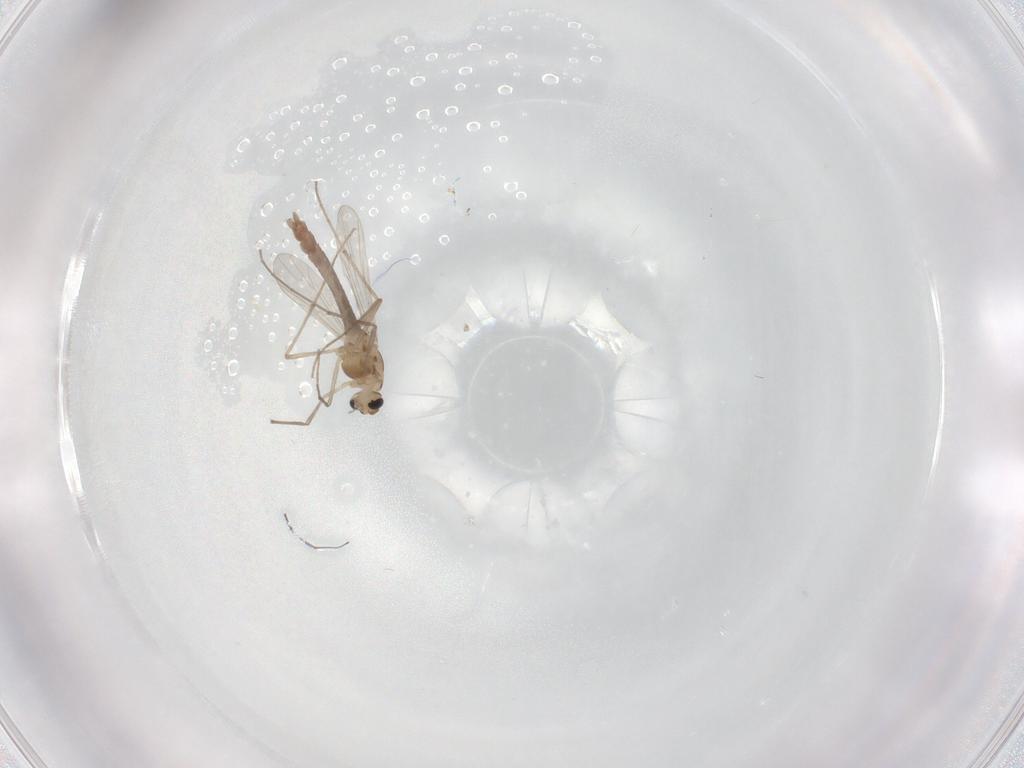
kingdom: Animalia
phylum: Arthropoda
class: Insecta
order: Diptera
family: Chironomidae
